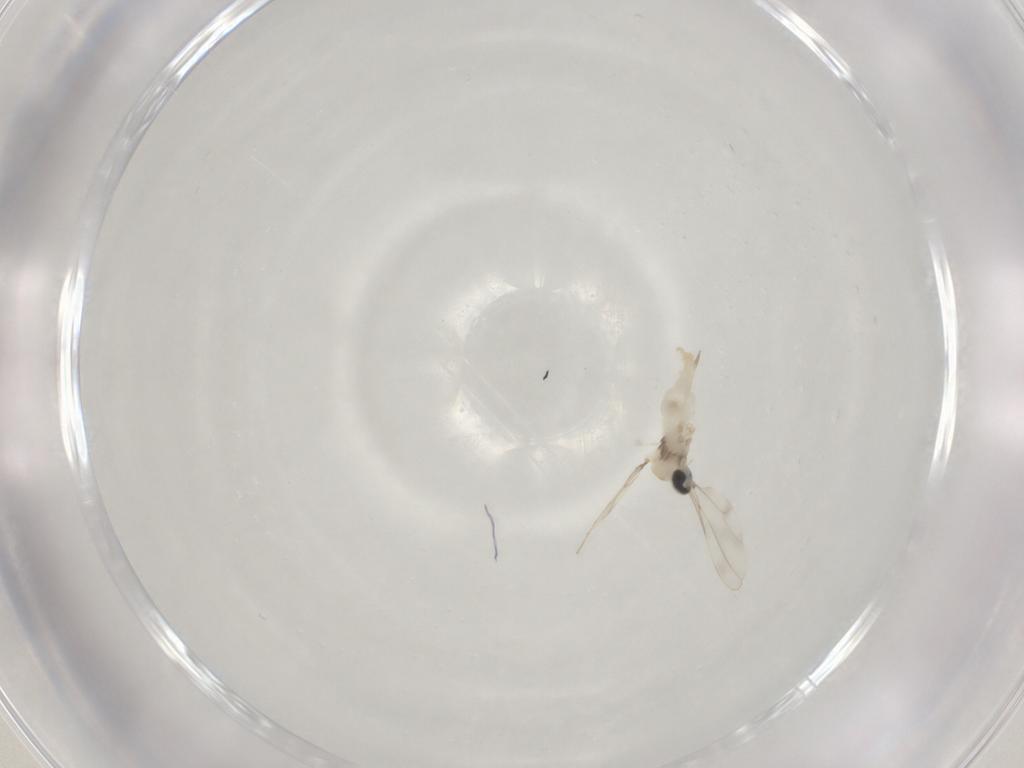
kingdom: Animalia
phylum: Arthropoda
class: Insecta
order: Diptera
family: Cecidomyiidae
